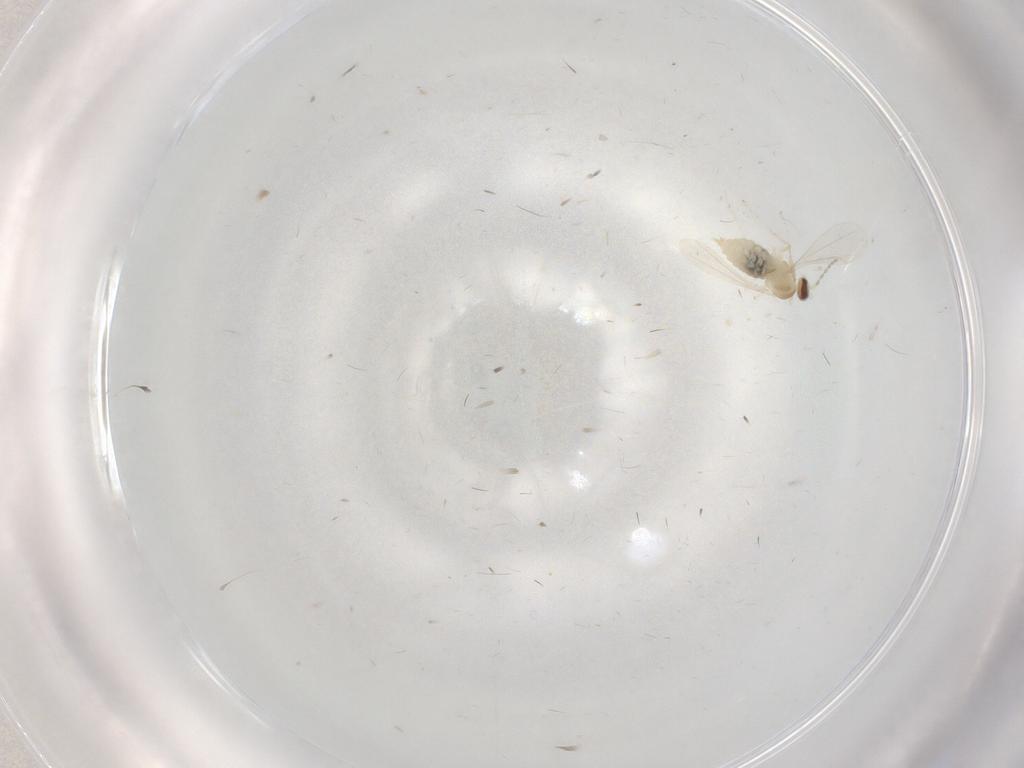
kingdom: Animalia
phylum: Arthropoda
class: Insecta
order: Diptera
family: Cecidomyiidae
